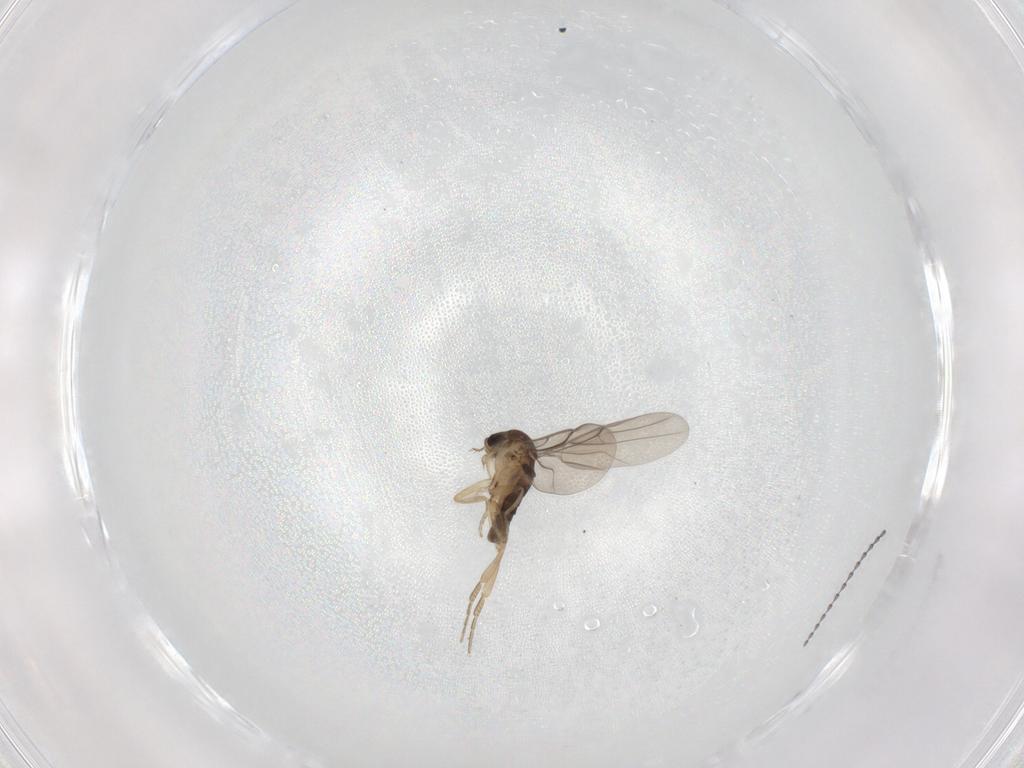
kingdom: Animalia
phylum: Arthropoda
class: Insecta
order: Diptera
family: Phoridae
